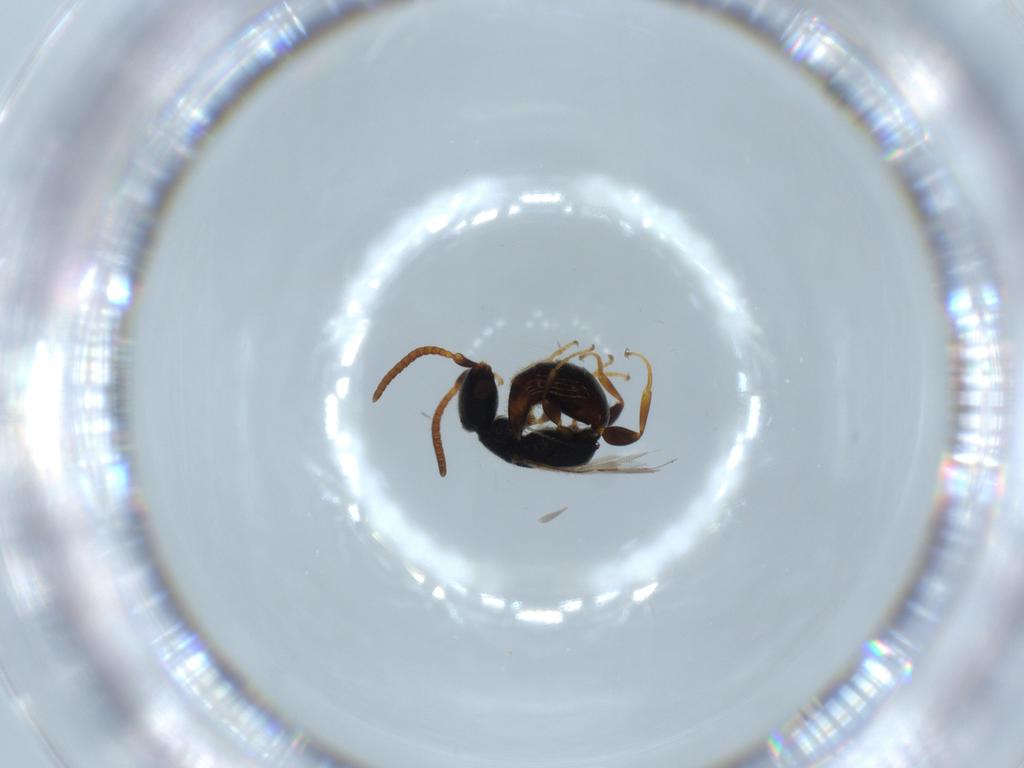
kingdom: Animalia
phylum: Arthropoda
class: Insecta
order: Hymenoptera
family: Bethylidae
